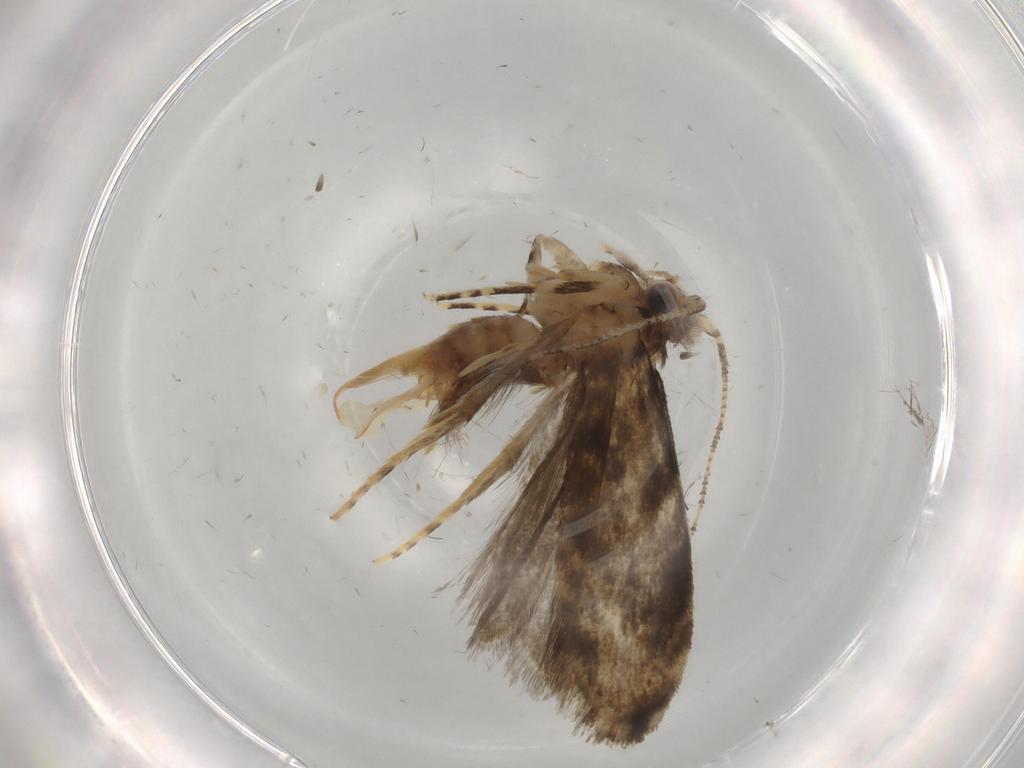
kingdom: Animalia
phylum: Arthropoda
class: Insecta
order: Lepidoptera
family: Tineidae
